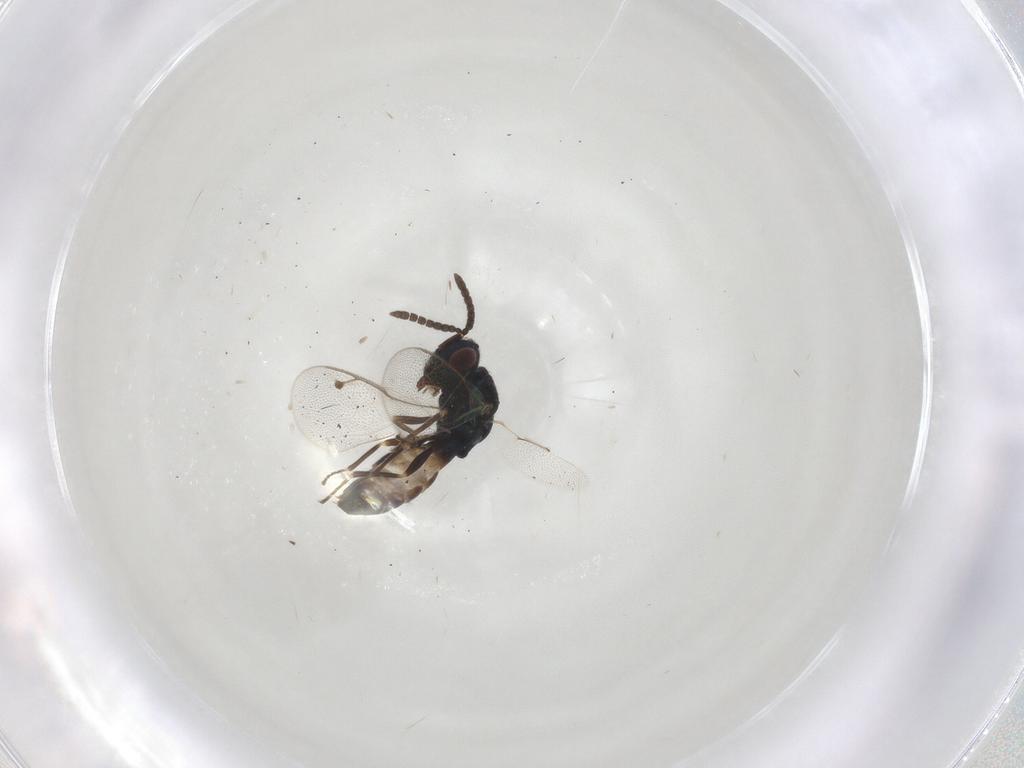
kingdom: Animalia
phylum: Arthropoda
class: Insecta
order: Hymenoptera
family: Pteromalidae
